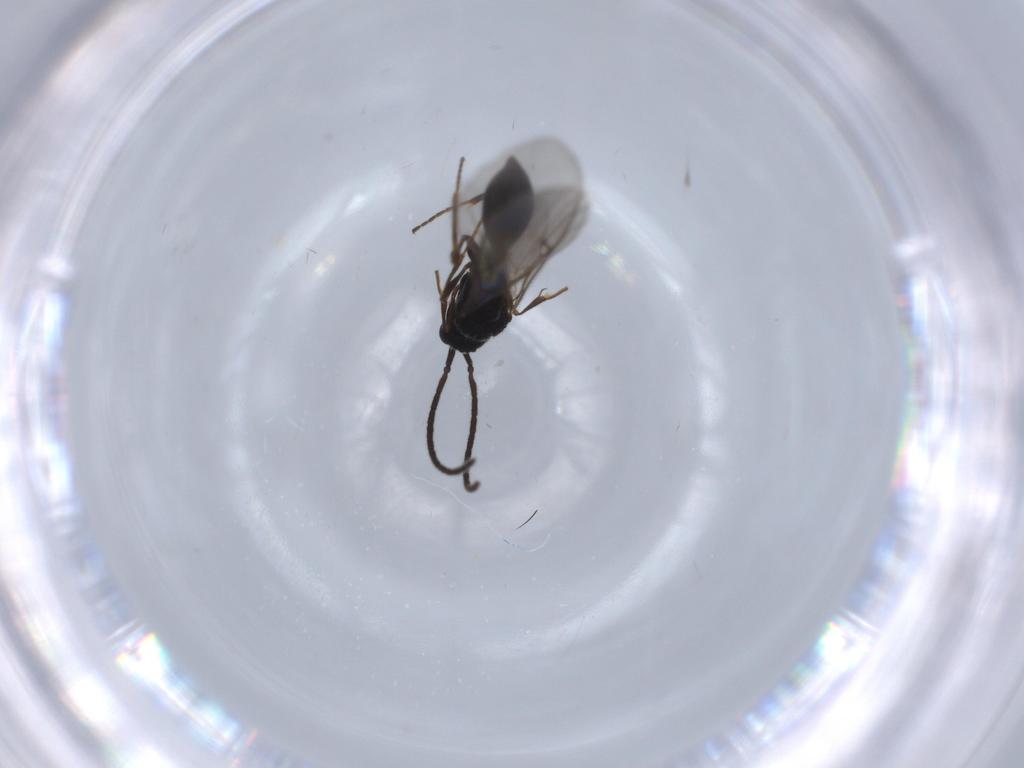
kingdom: Animalia
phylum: Arthropoda
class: Insecta
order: Hymenoptera
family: Diapriidae
